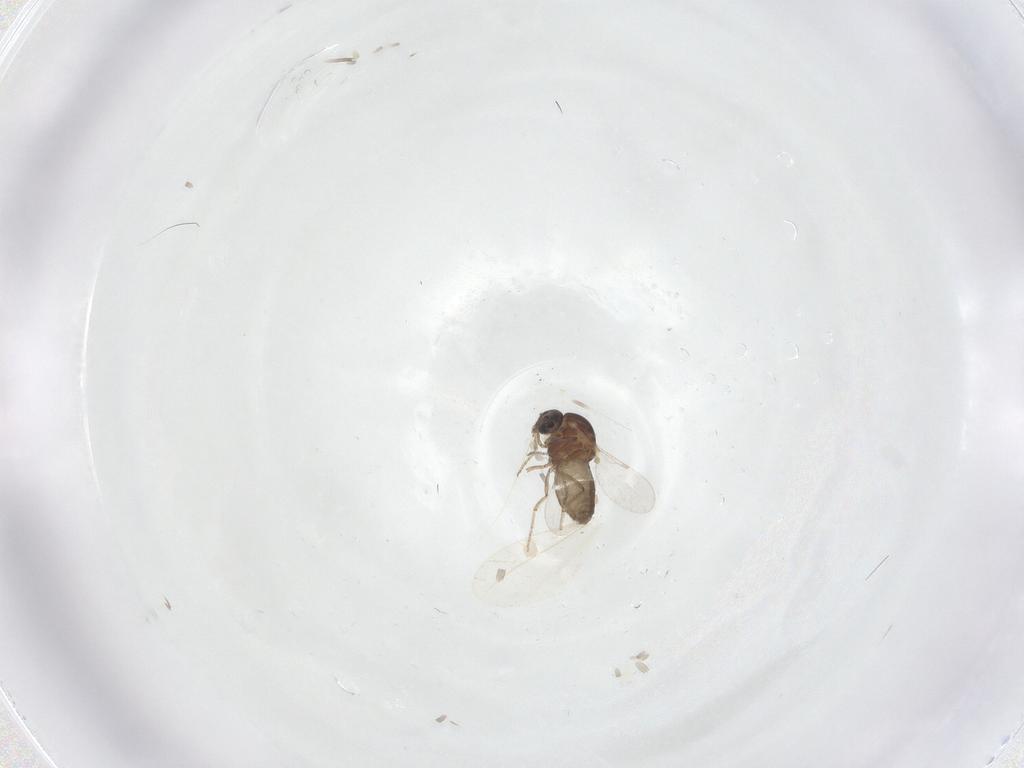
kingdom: Animalia
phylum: Arthropoda
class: Insecta
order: Diptera
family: Ceratopogonidae
